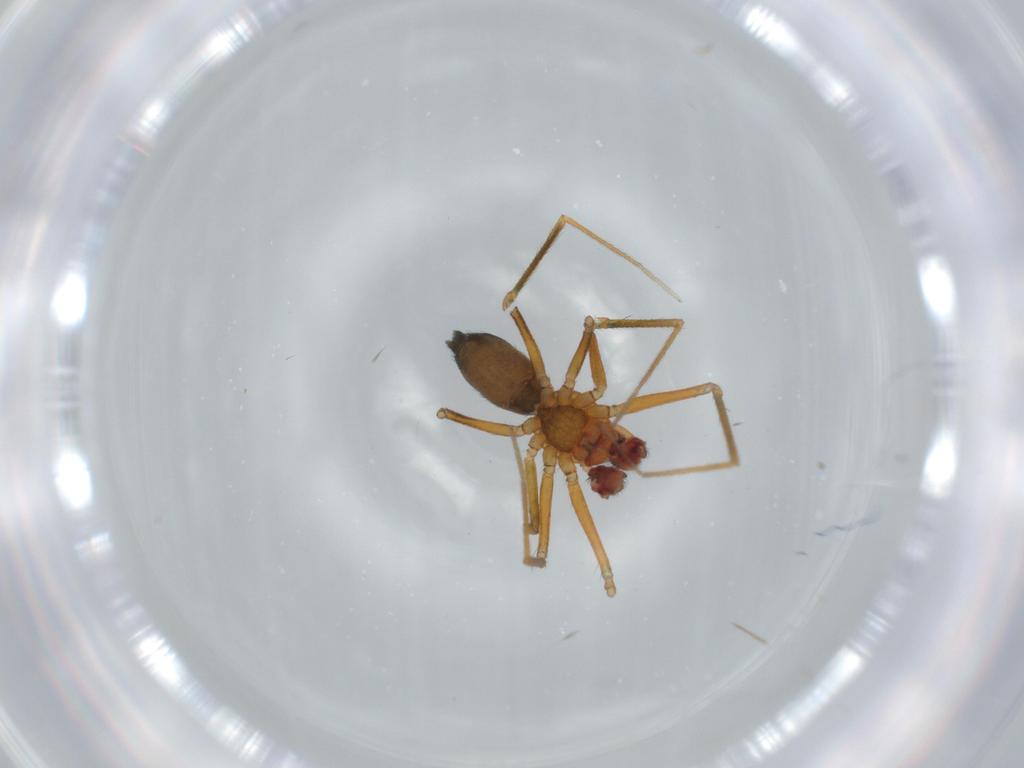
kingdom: Animalia
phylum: Arthropoda
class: Arachnida
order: Araneae
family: Linyphiidae
